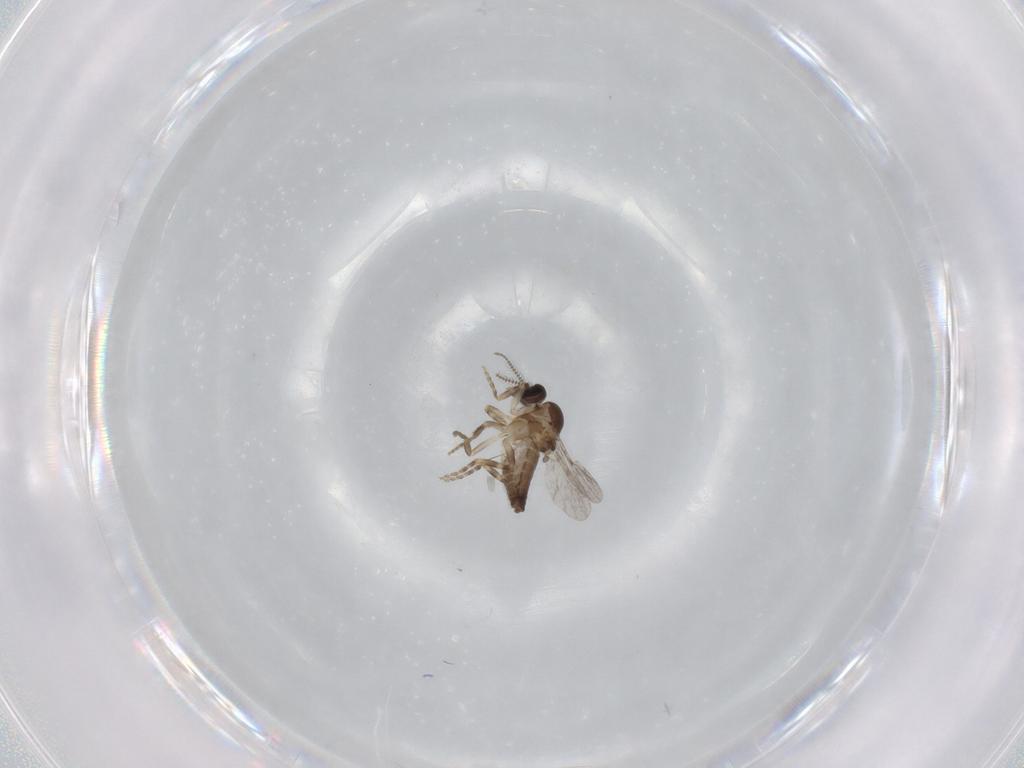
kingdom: Animalia
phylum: Arthropoda
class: Insecta
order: Diptera
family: Ceratopogonidae
